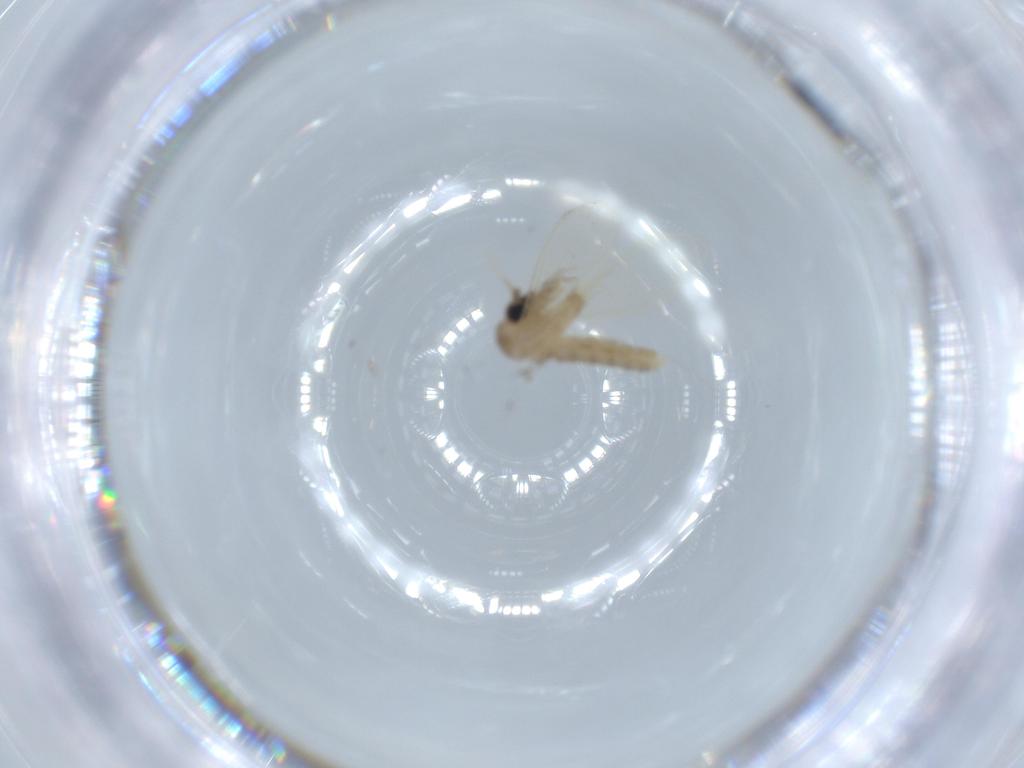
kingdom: Animalia
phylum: Arthropoda
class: Insecta
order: Diptera
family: Psychodidae
